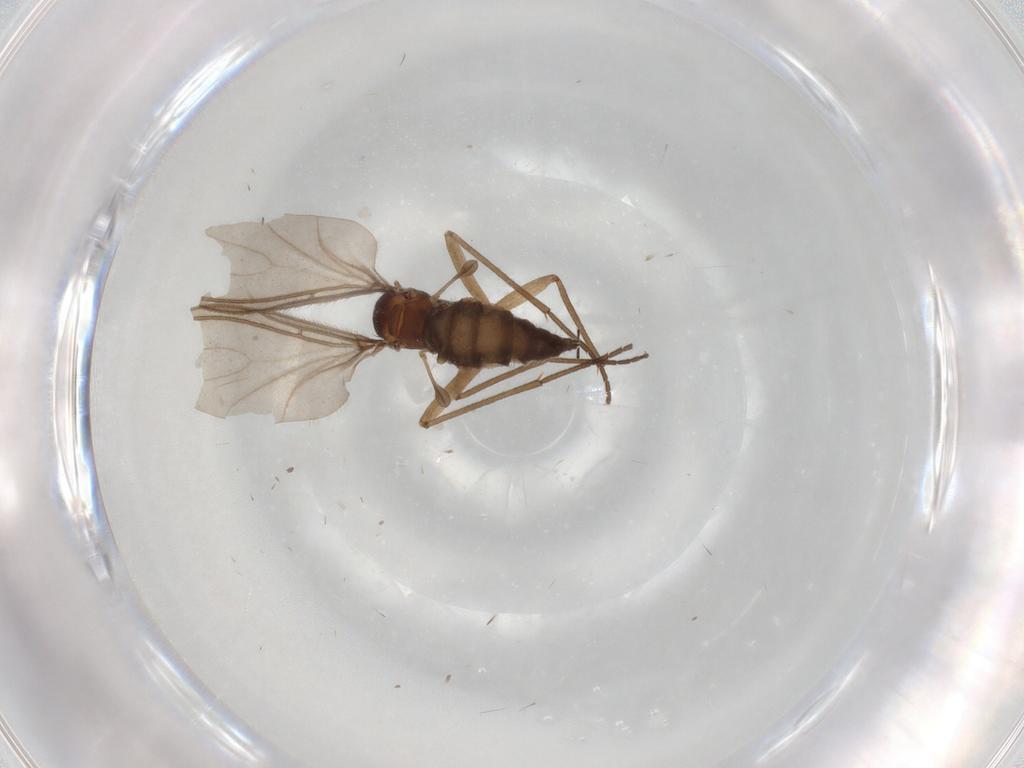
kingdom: Animalia
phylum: Arthropoda
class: Insecta
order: Diptera
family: Sciaridae
